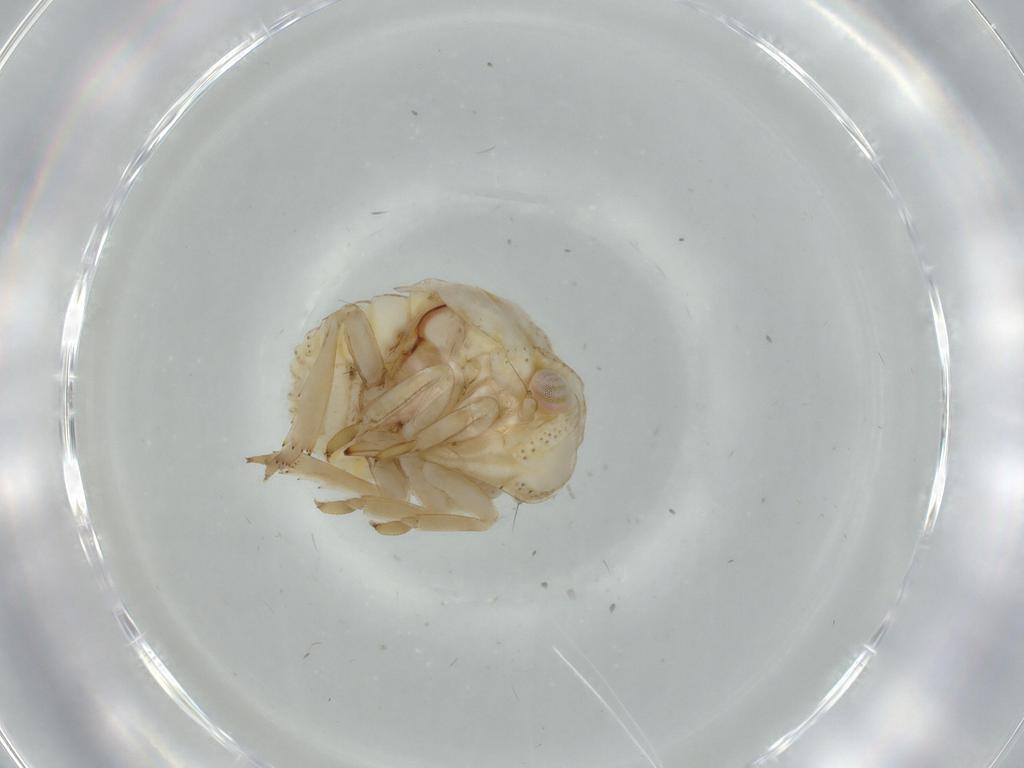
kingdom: Animalia
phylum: Arthropoda
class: Insecta
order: Hemiptera
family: Acanaloniidae
